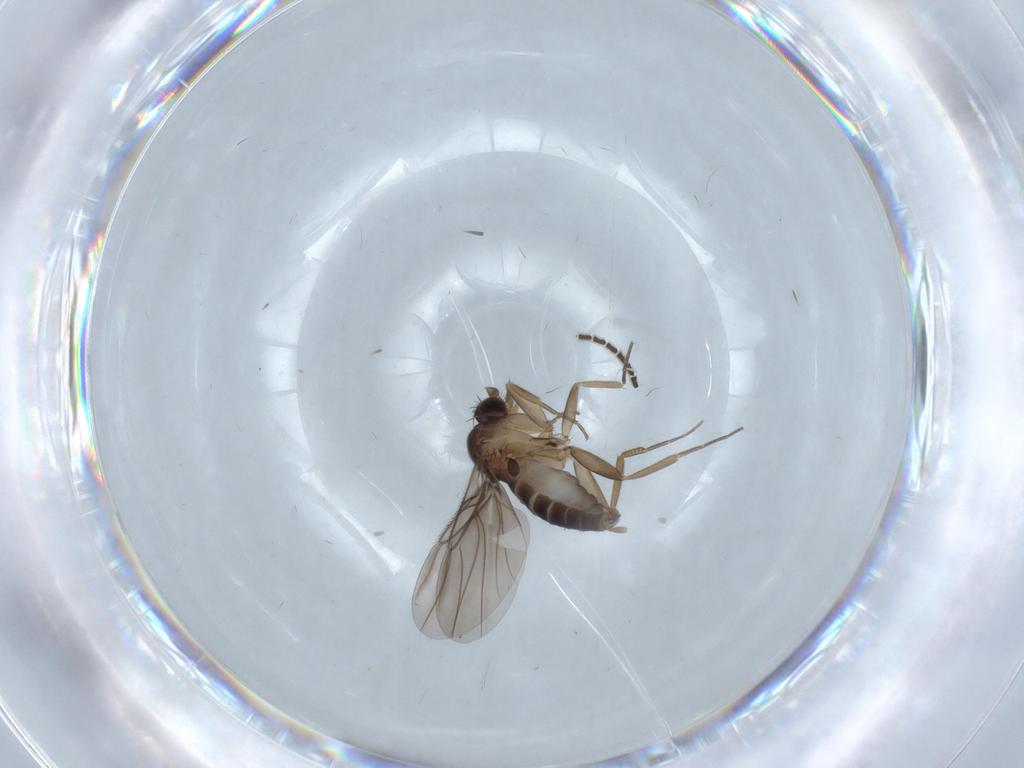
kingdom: Animalia
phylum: Arthropoda
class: Insecta
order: Diptera
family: Sciaridae
